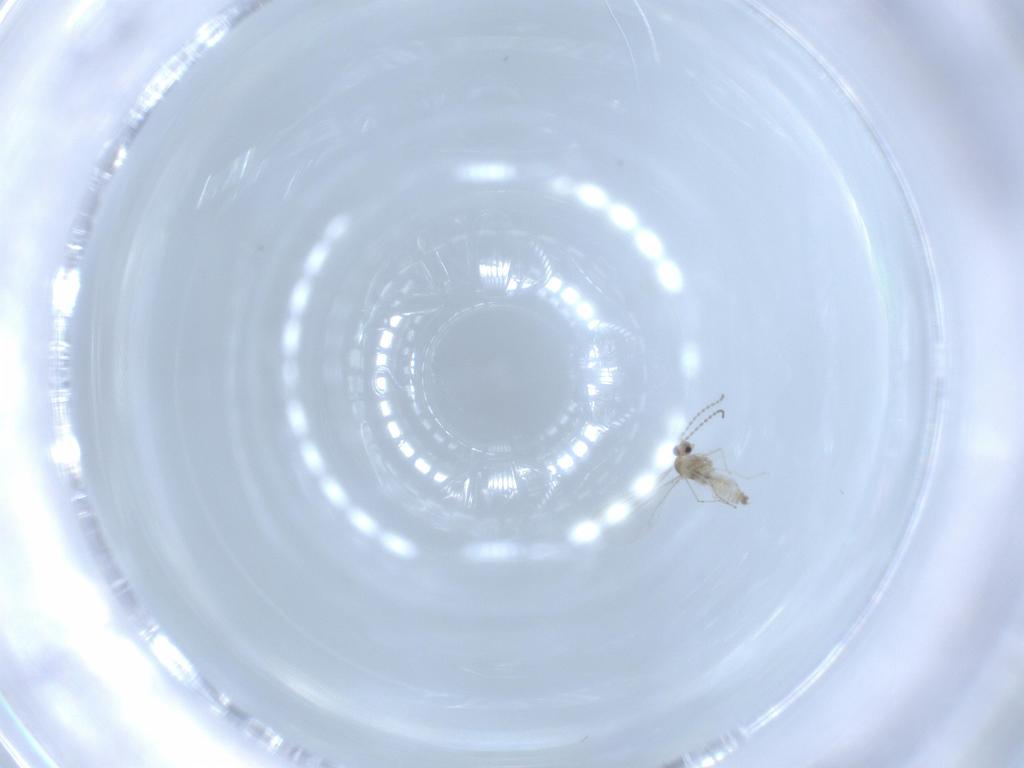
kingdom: Animalia
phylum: Arthropoda
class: Insecta
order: Diptera
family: Cecidomyiidae
